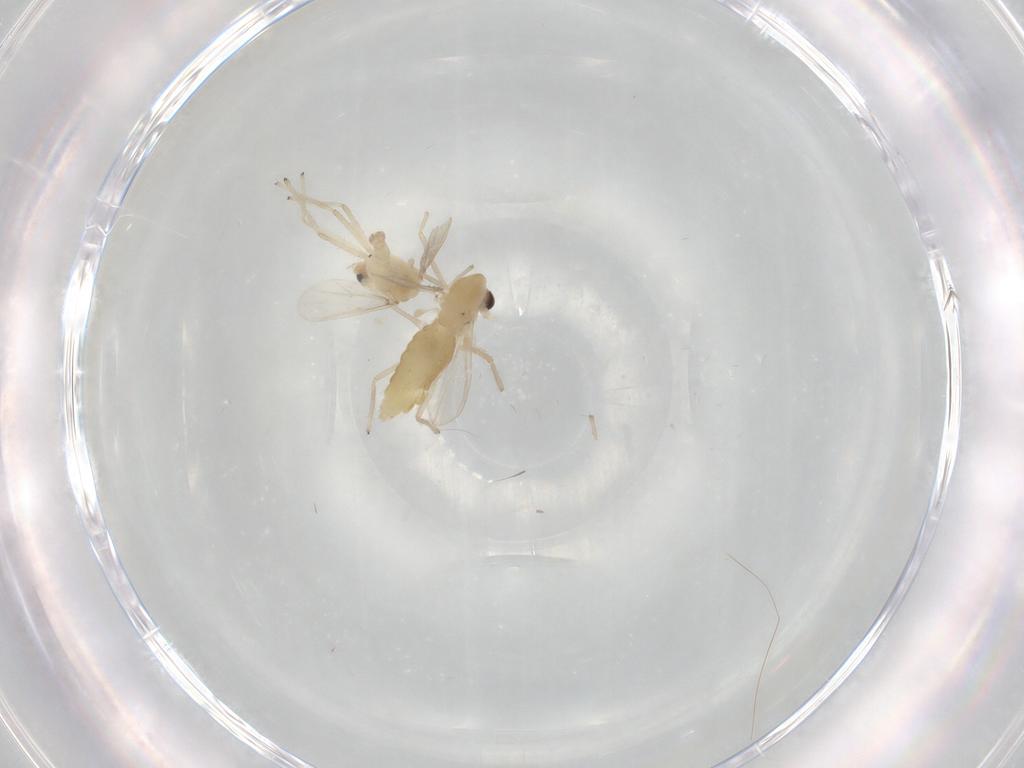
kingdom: Animalia
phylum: Arthropoda
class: Insecta
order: Diptera
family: Chironomidae
